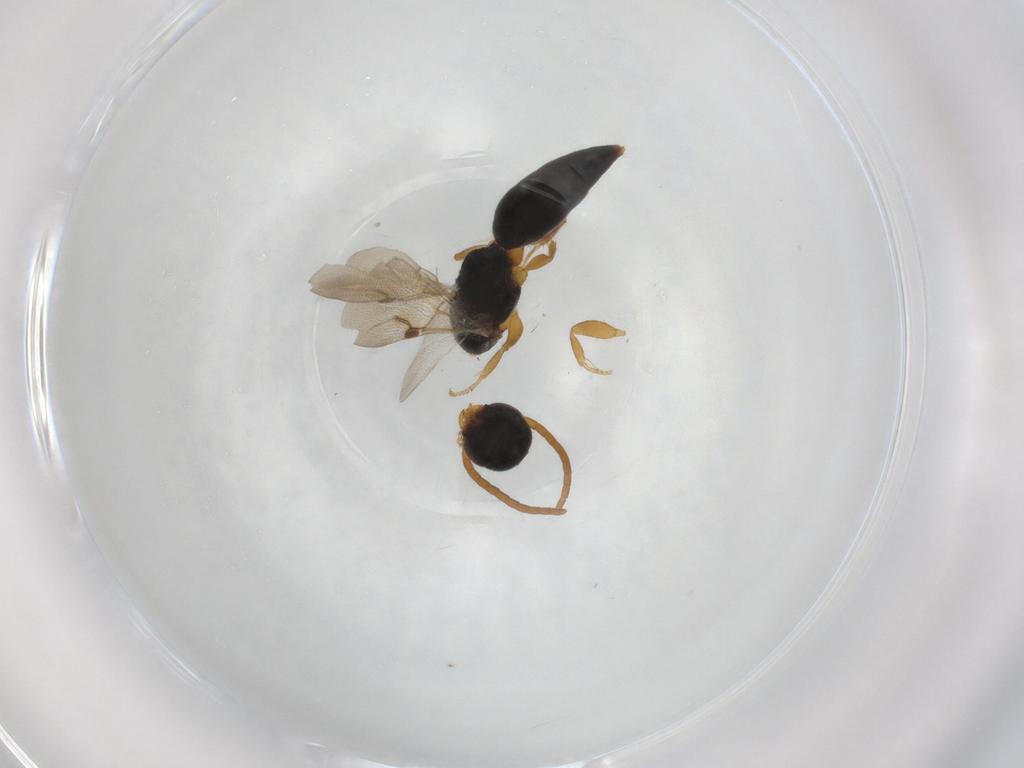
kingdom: Animalia
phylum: Arthropoda
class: Insecta
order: Hymenoptera
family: Bethylidae
